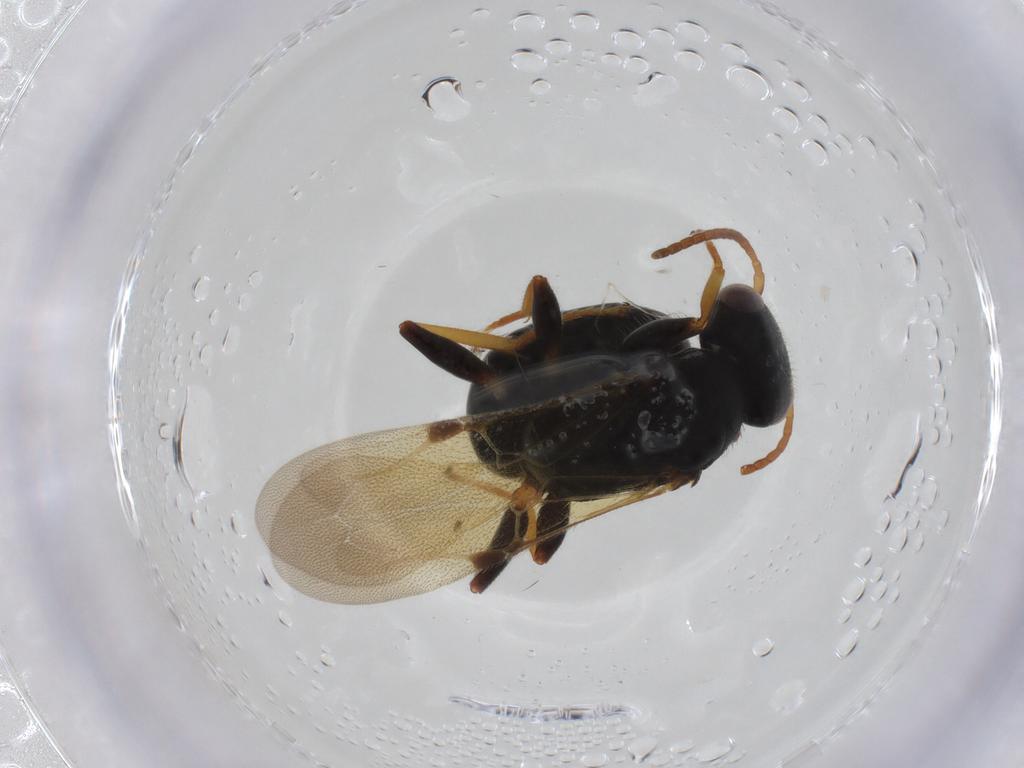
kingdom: Animalia
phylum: Arthropoda
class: Insecta
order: Hymenoptera
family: Bethylidae
